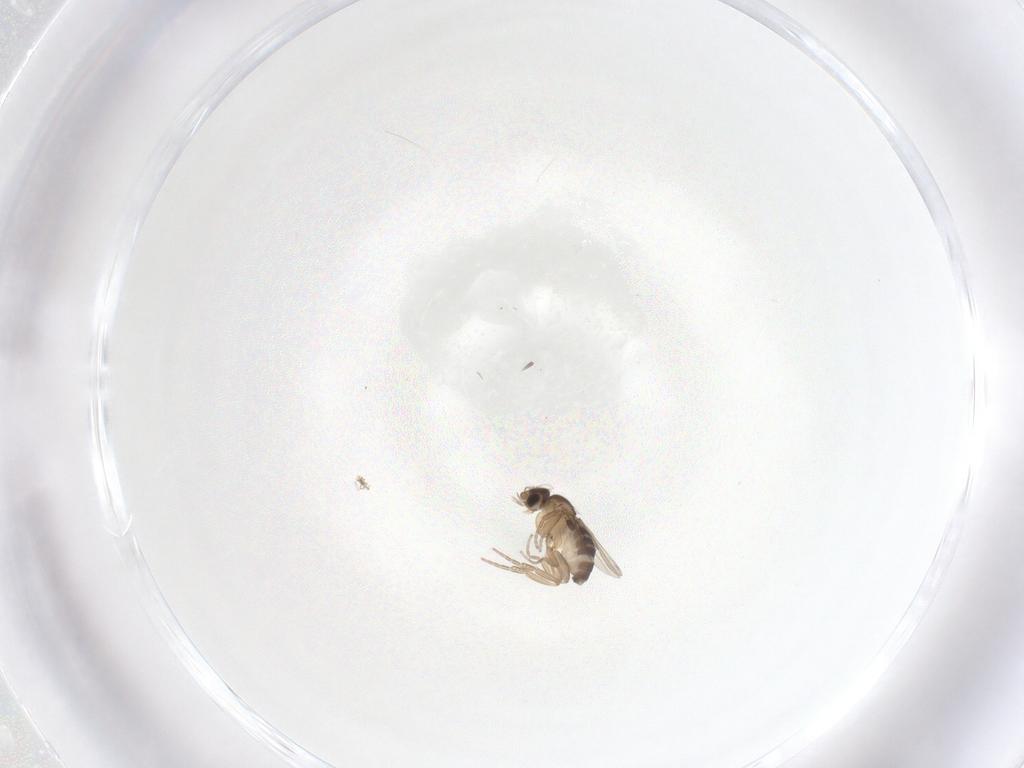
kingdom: Animalia
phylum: Arthropoda
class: Insecta
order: Diptera
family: Phoridae
